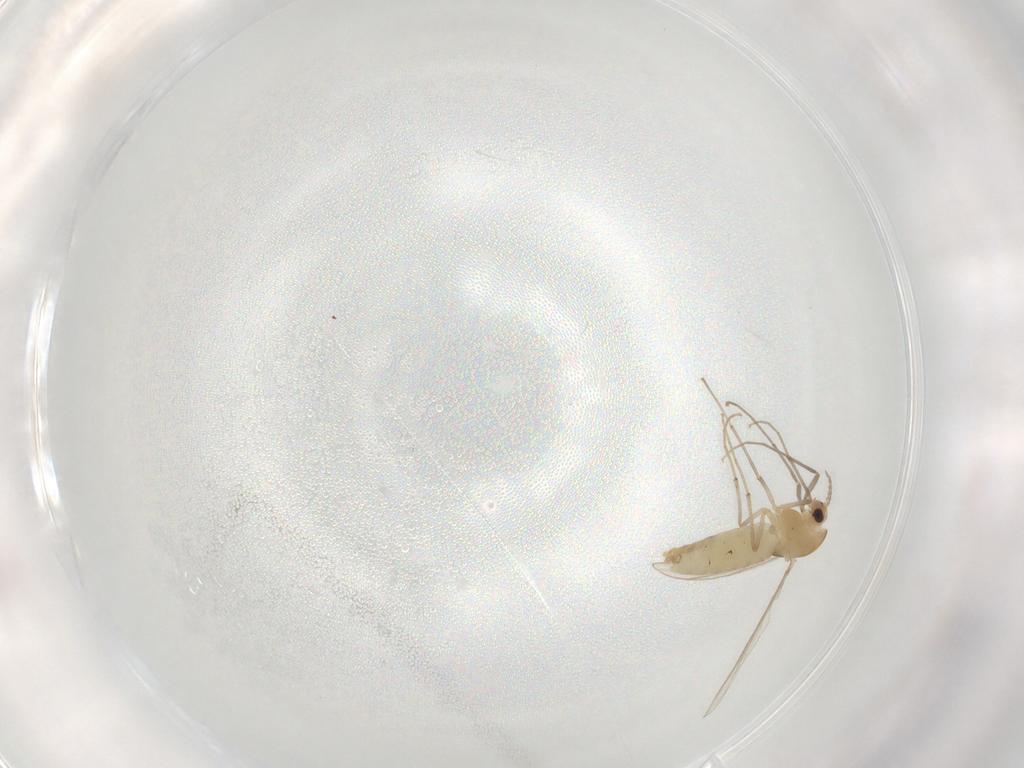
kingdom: Animalia
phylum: Arthropoda
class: Insecta
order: Diptera
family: Chironomidae
